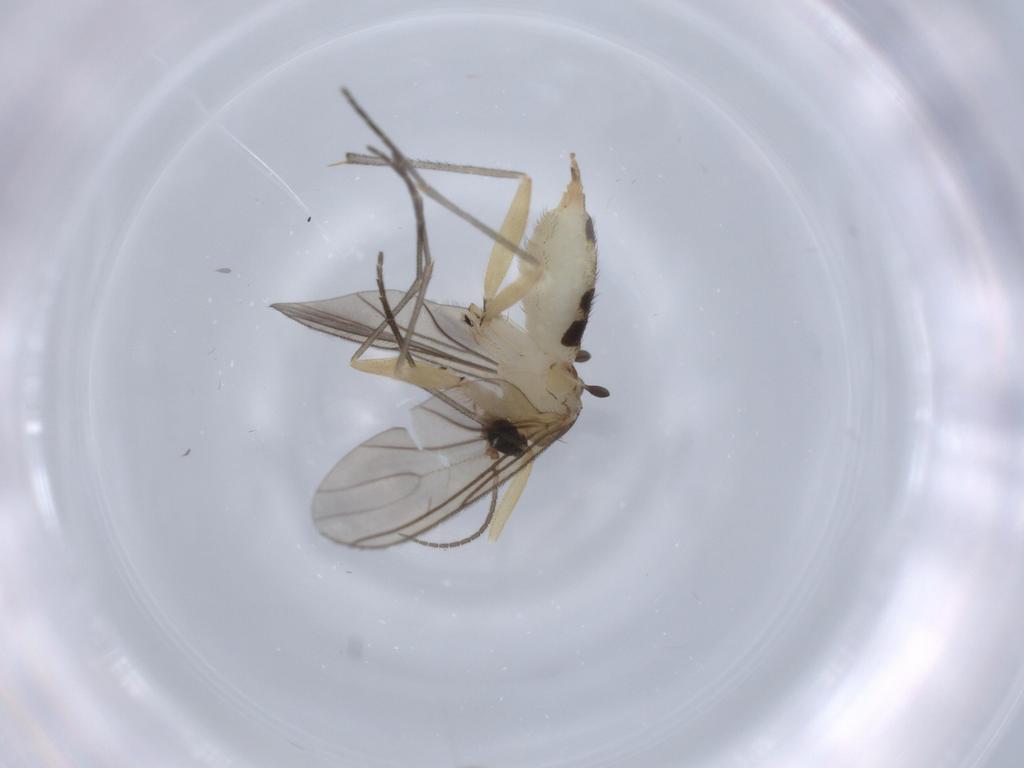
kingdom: Animalia
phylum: Arthropoda
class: Insecta
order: Diptera
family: Sciaridae
